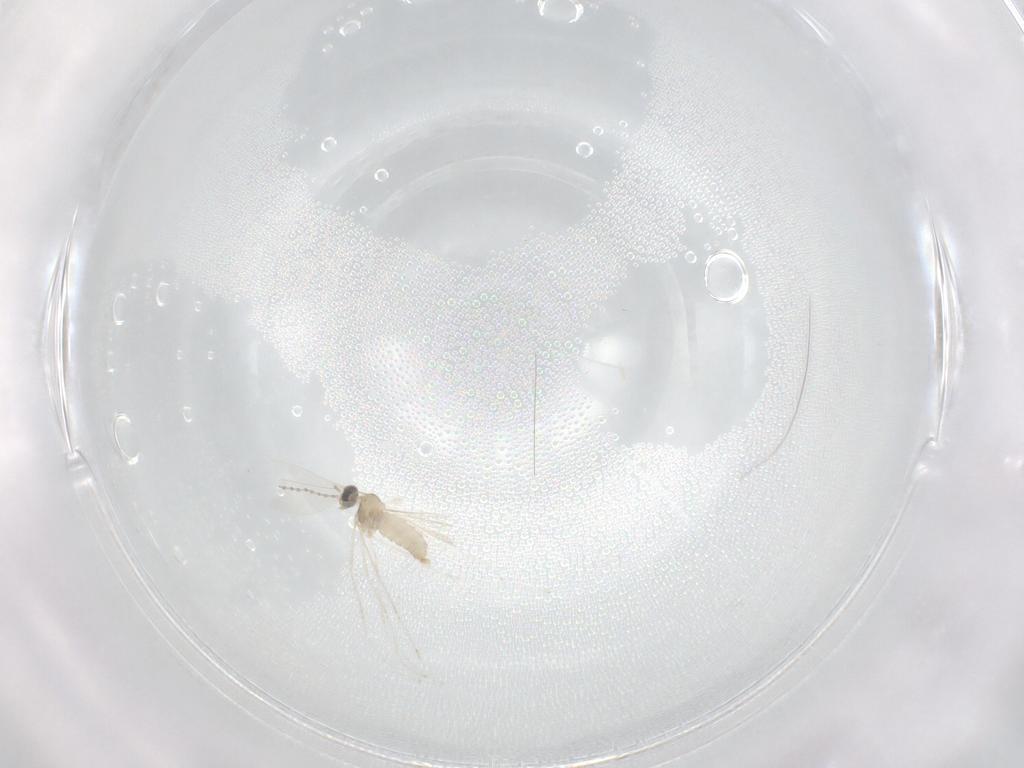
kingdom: Animalia
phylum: Arthropoda
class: Insecta
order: Diptera
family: Cecidomyiidae
